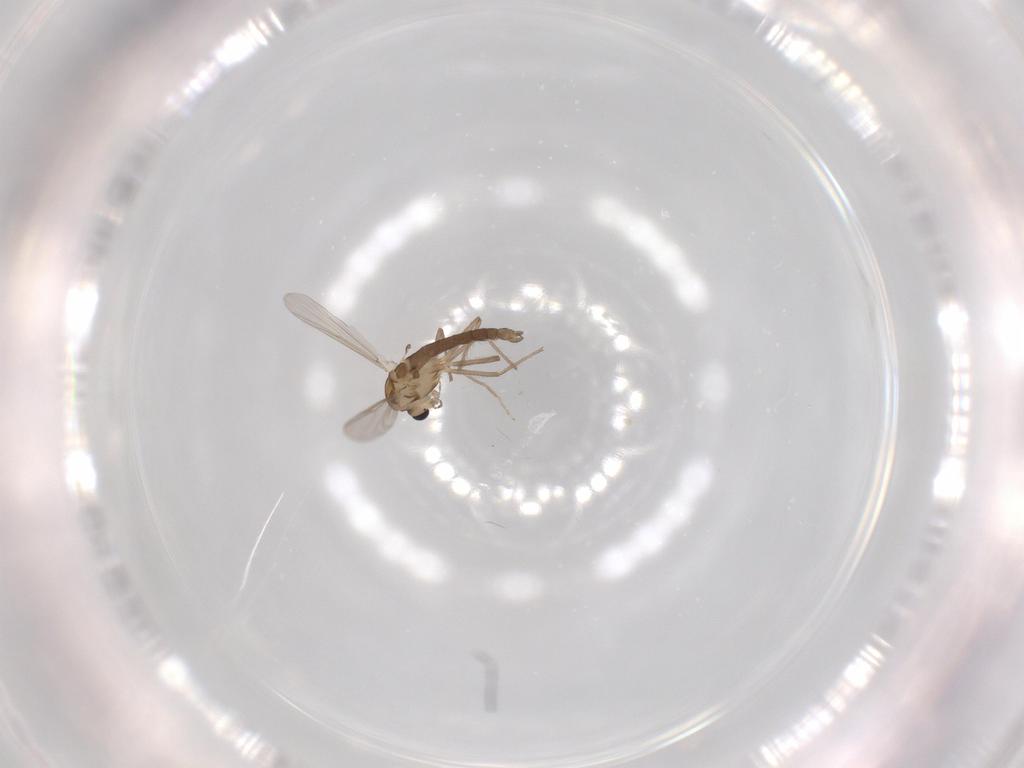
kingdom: Animalia
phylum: Arthropoda
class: Insecta
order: Diptera
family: Chironomidae
